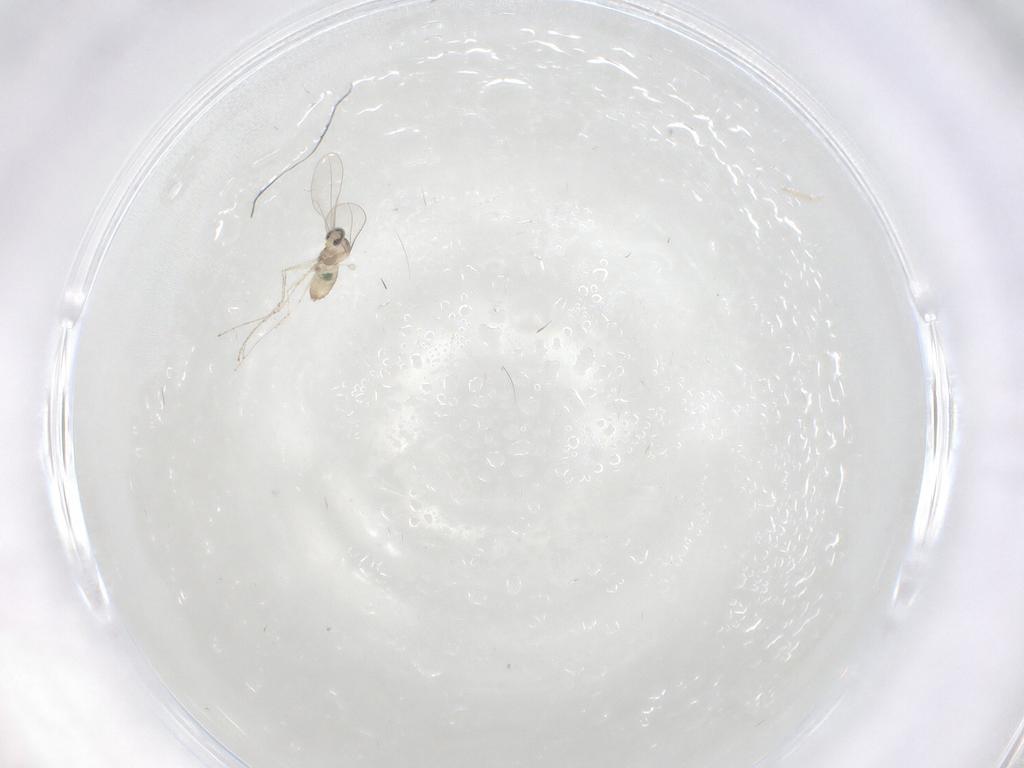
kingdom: Animalia
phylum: Arthropoda
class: Insecta
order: Diptera
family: Cecidomyiidae
